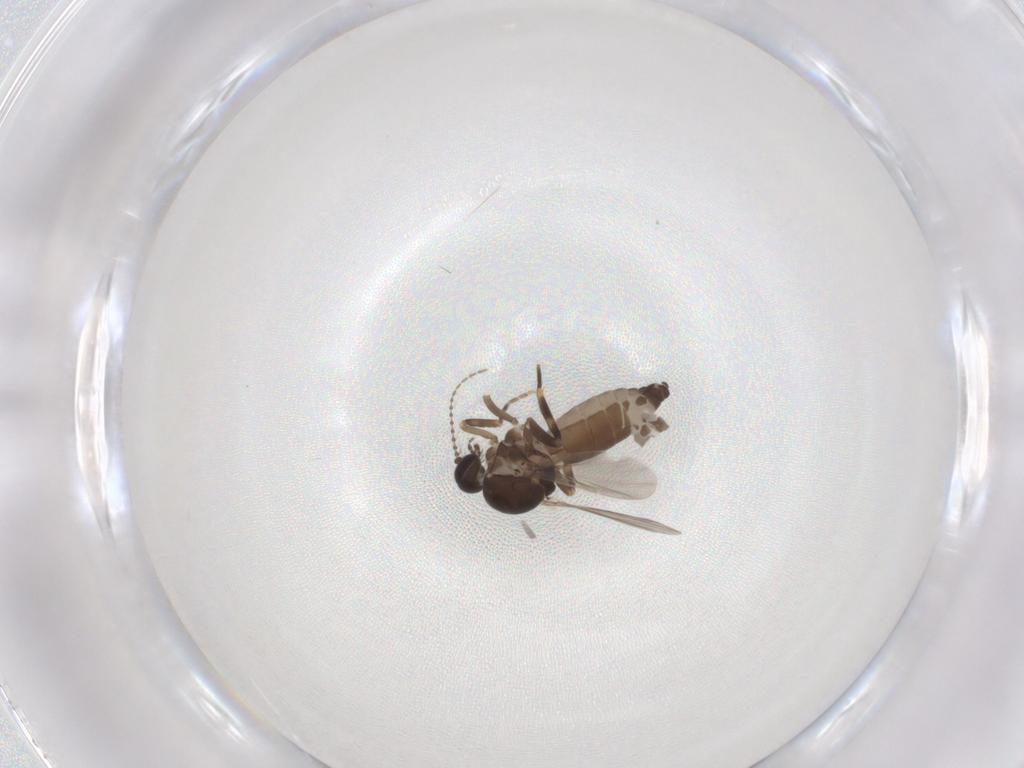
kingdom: Animalia
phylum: Arthropoda
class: Insecta
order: Diptera
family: Ceratopogonidae
